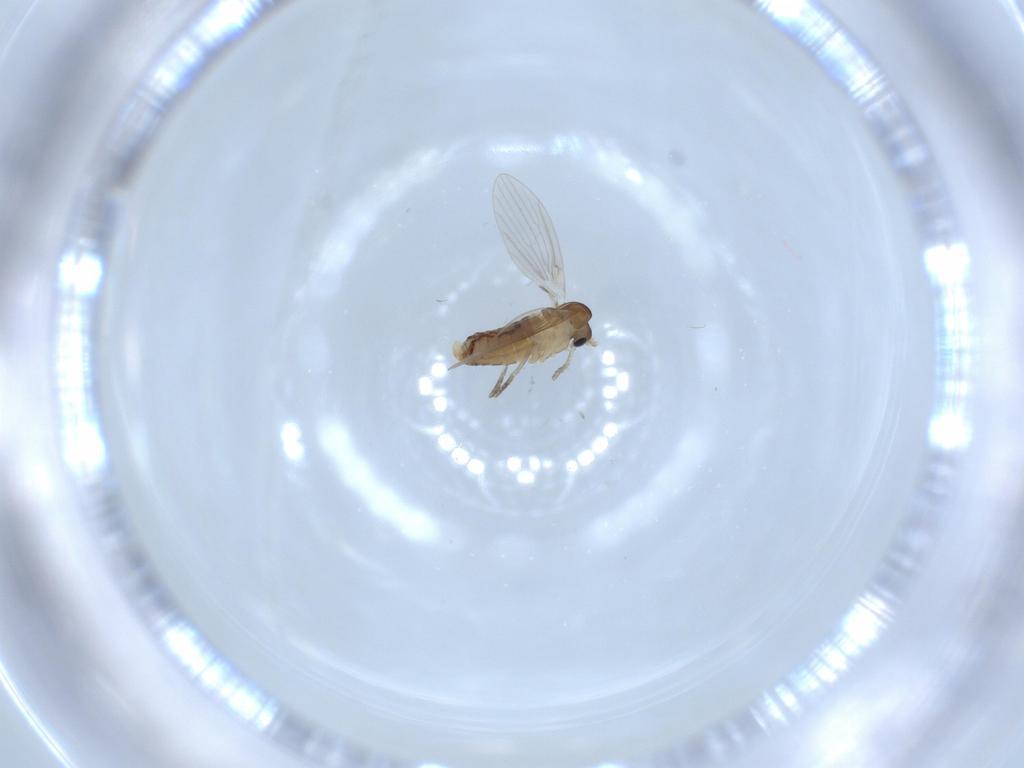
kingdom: Animalia
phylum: Arthropoda
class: Insecta
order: Diptera
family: Psychodidae
